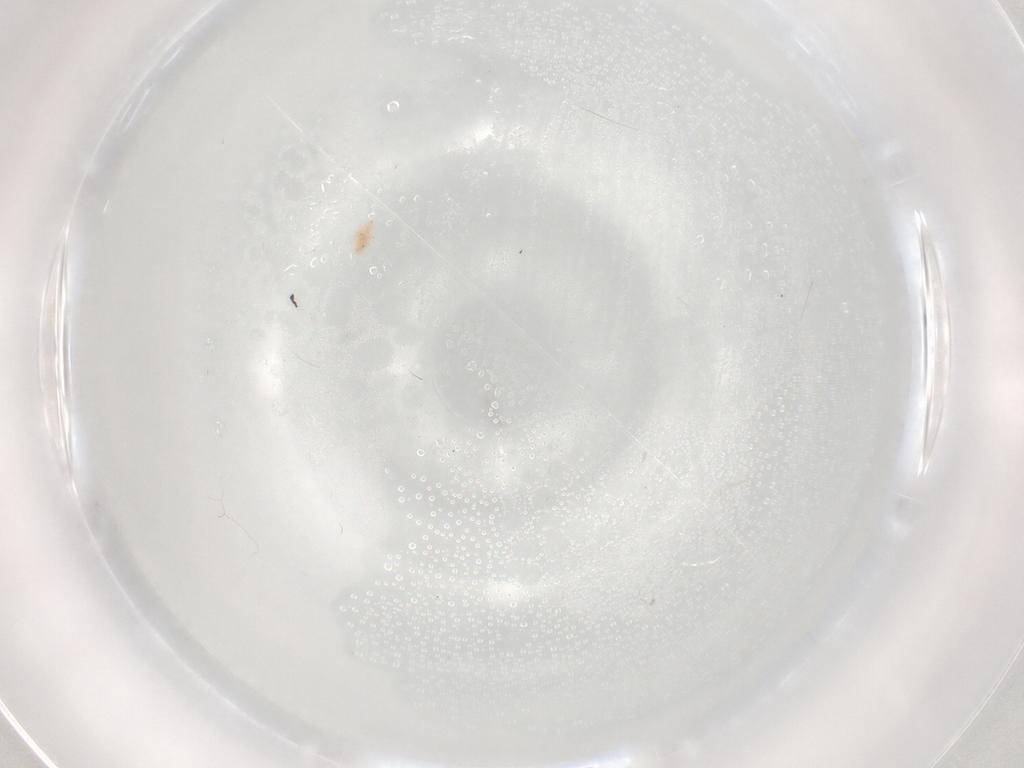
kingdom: Animalia
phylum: Arthropoda
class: Arachnida
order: Trombidiformes
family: Bdellidae
